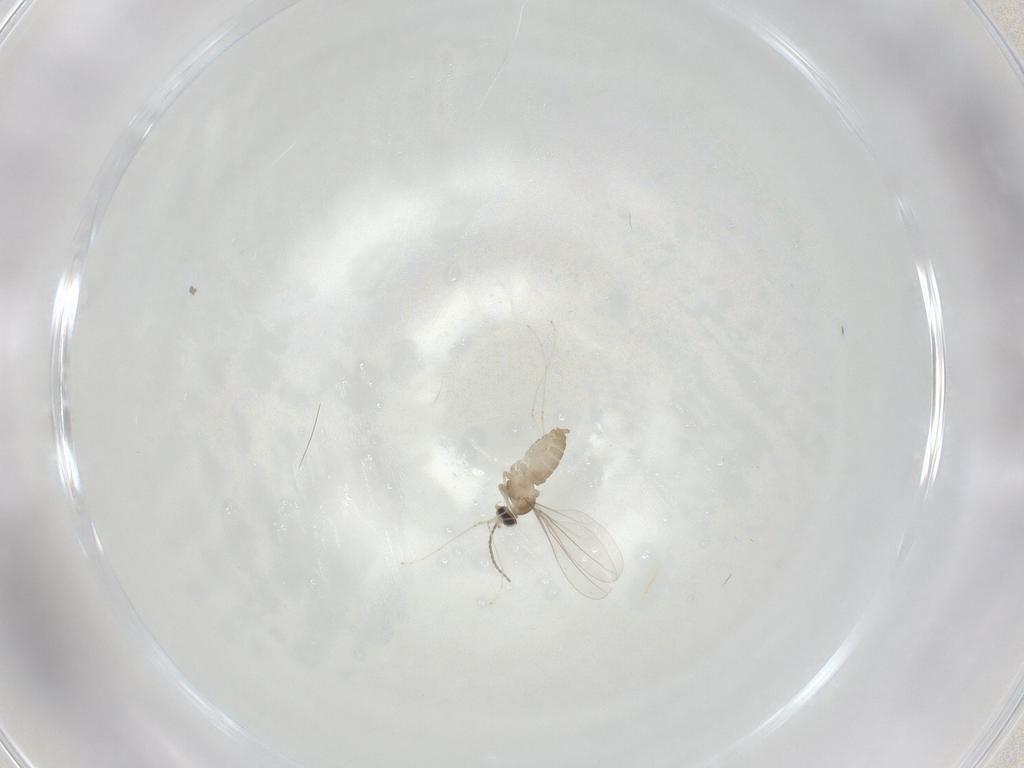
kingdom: Animalia
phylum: Arthropoda
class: Insecta
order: Diptera
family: Cecidomyiidae
